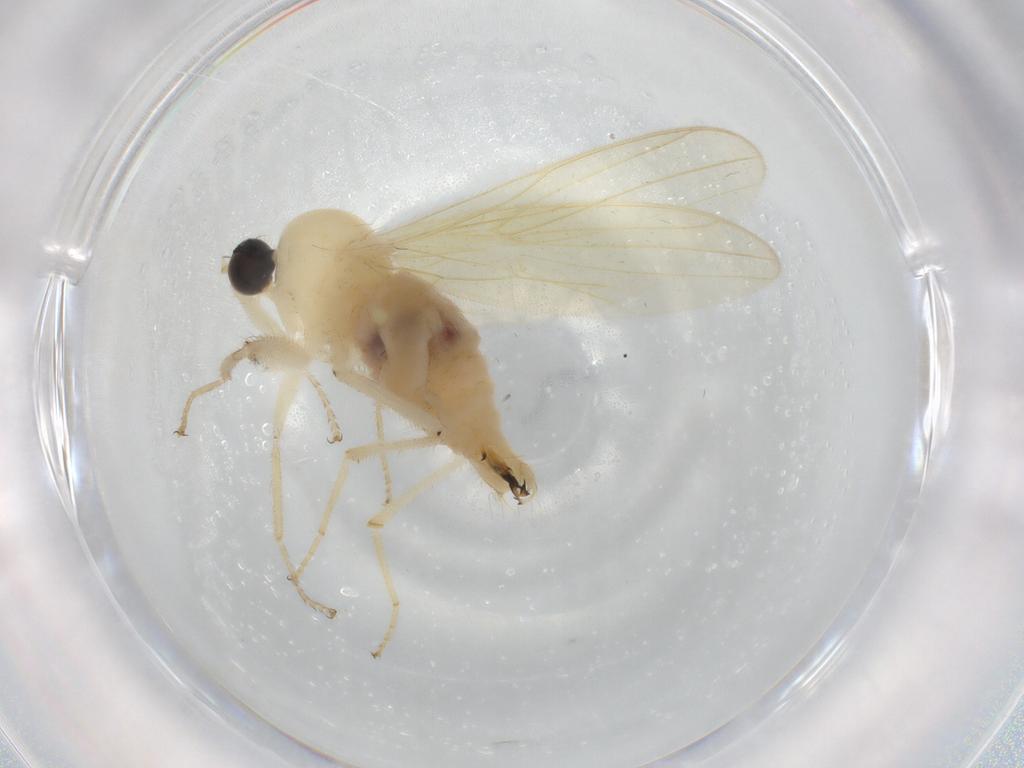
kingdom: Animalia
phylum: Arthropoda
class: Insecta
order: Diptera
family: Hybotidae
